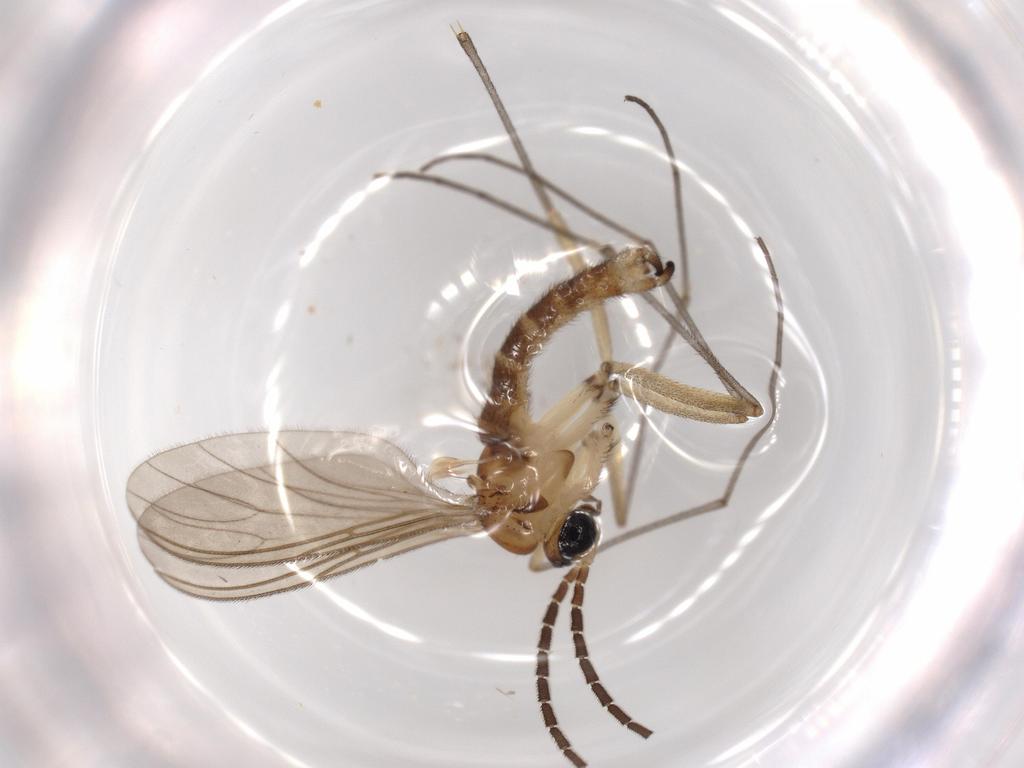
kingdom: Animalia
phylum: Arthropoda
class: Insecta
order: Diptera
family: Sciaridae
